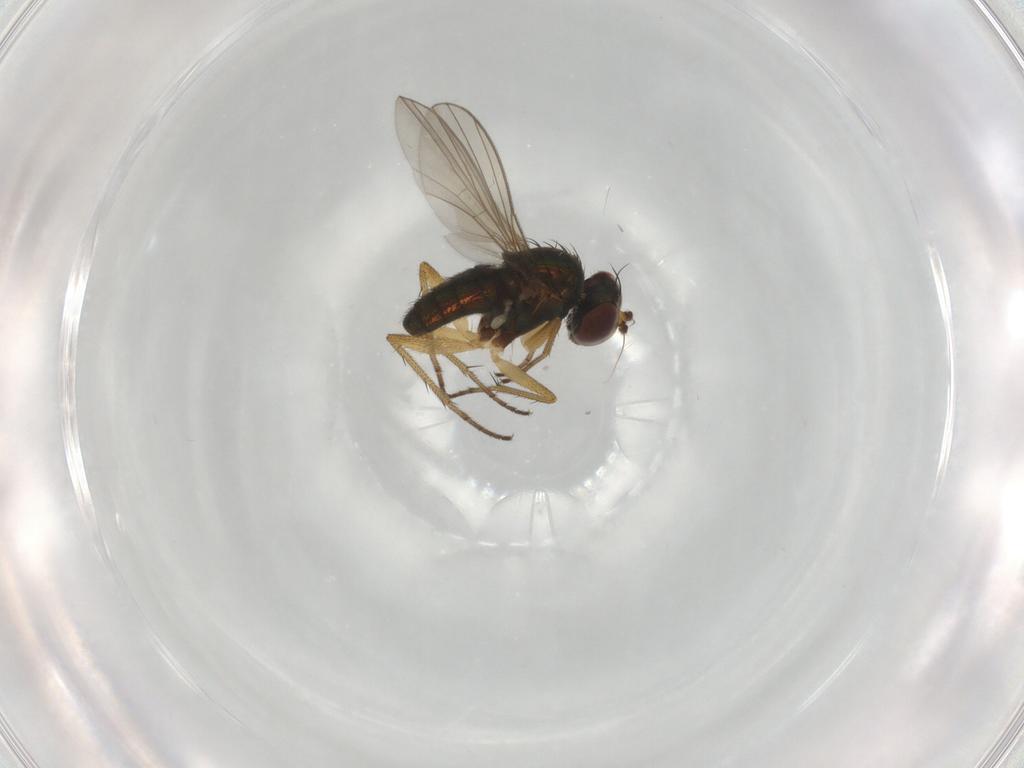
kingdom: Animalia
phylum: Arthropoda
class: Insecta
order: Diptera
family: Dolichopodidae
